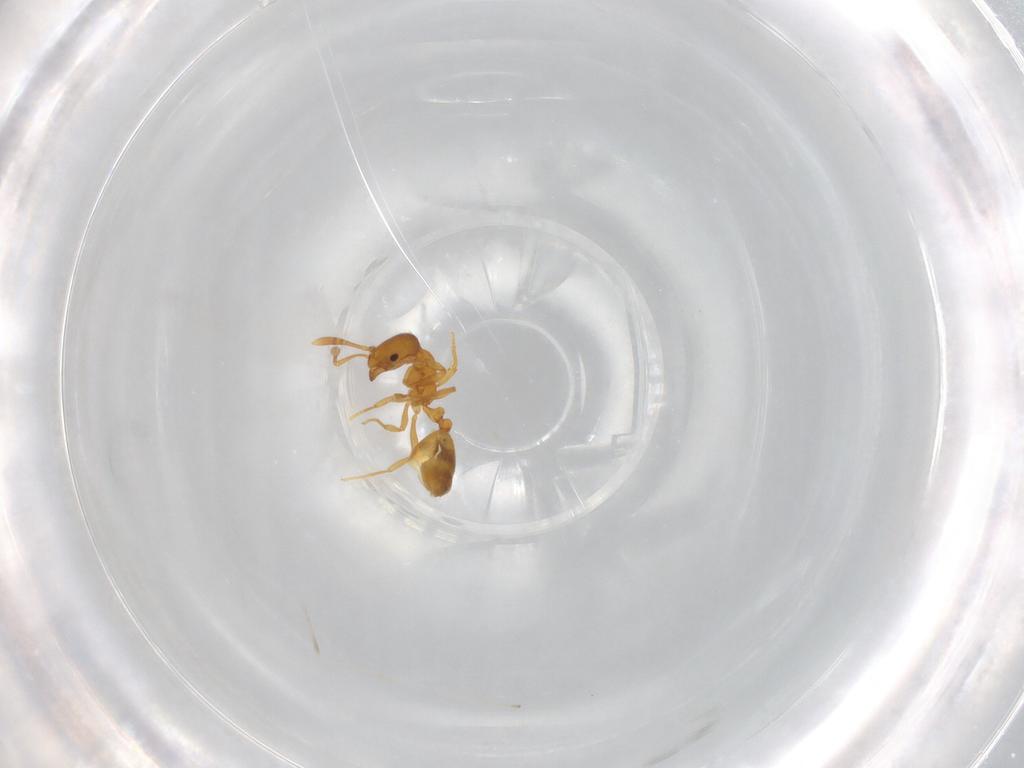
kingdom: Animalia
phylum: Arthropoda
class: Insecta
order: Hymenoptera
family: Formicidae
